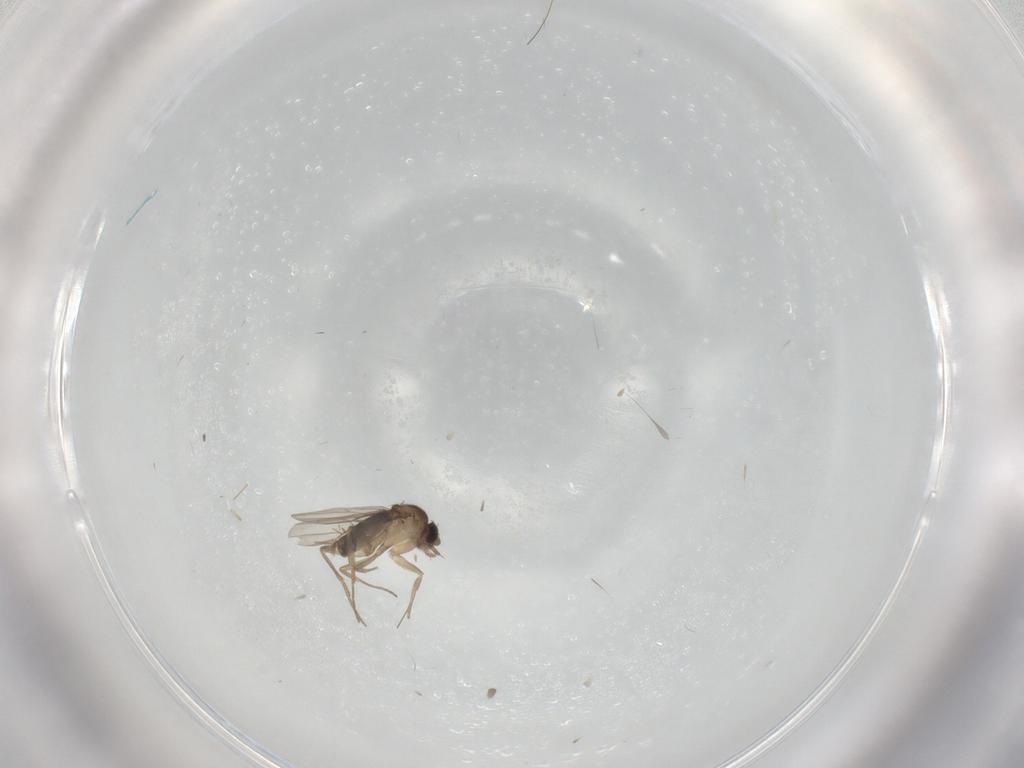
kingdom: Animalia
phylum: Arthropoda
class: Insecta
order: Diptera
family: Phoridae
